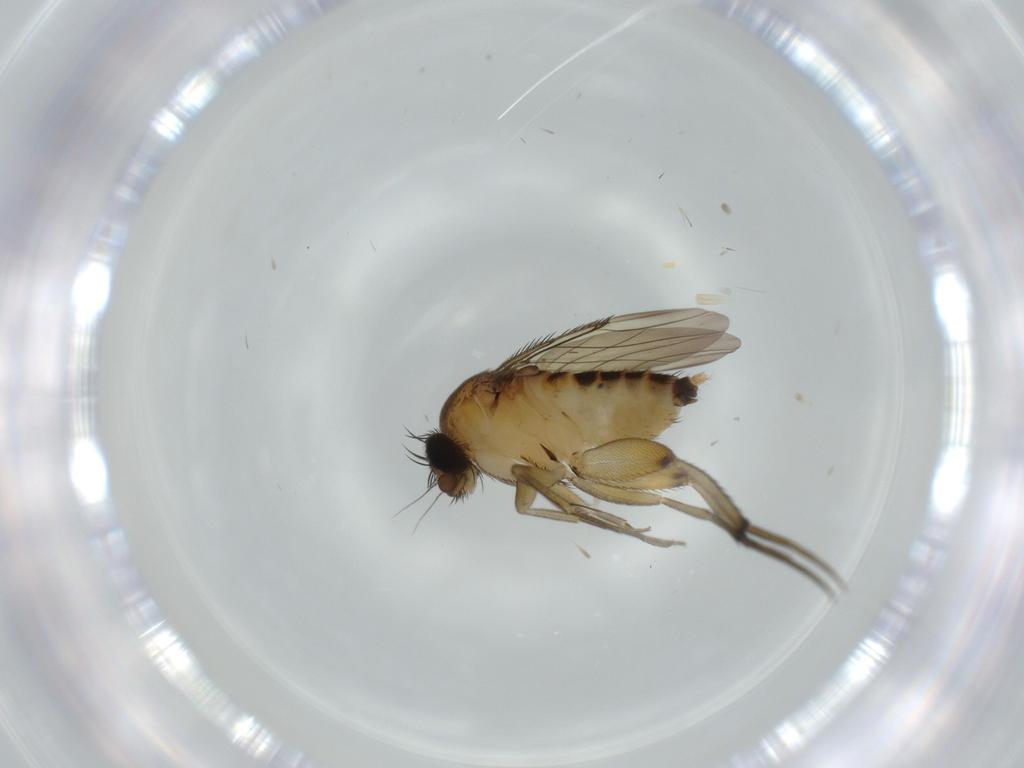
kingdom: Animalia
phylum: Arthropoda
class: Insecta
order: Diptera
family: Phoridae
